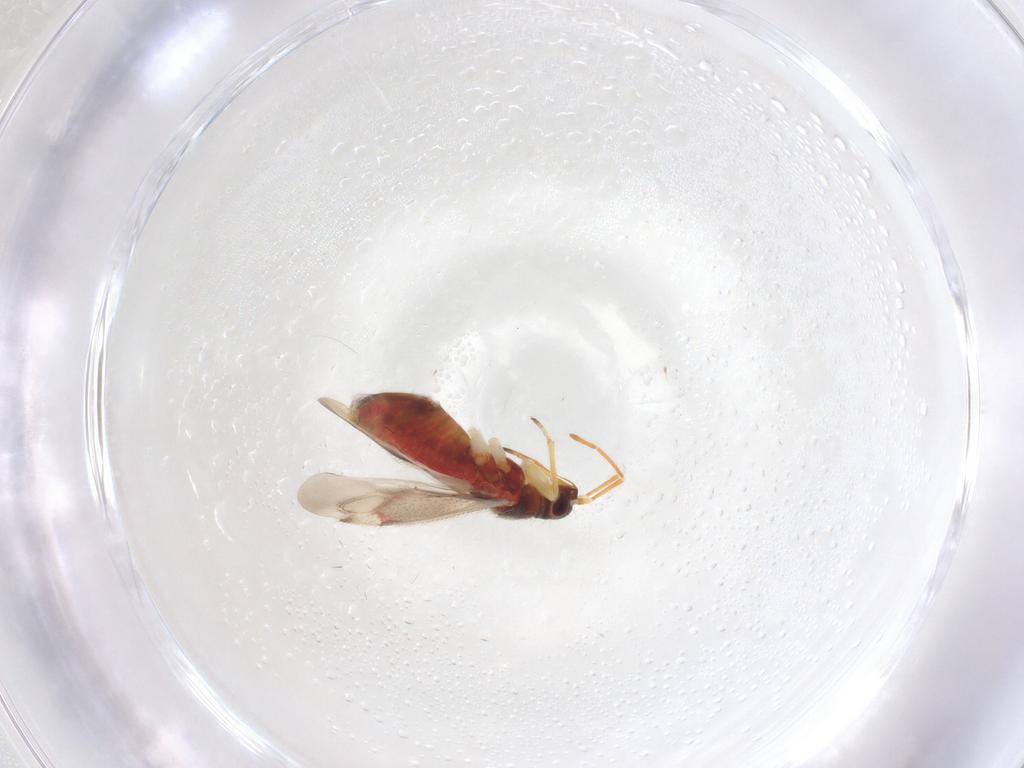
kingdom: Animalia
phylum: Arthropoda
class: Insecta
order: Hemiptera
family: Miridae
